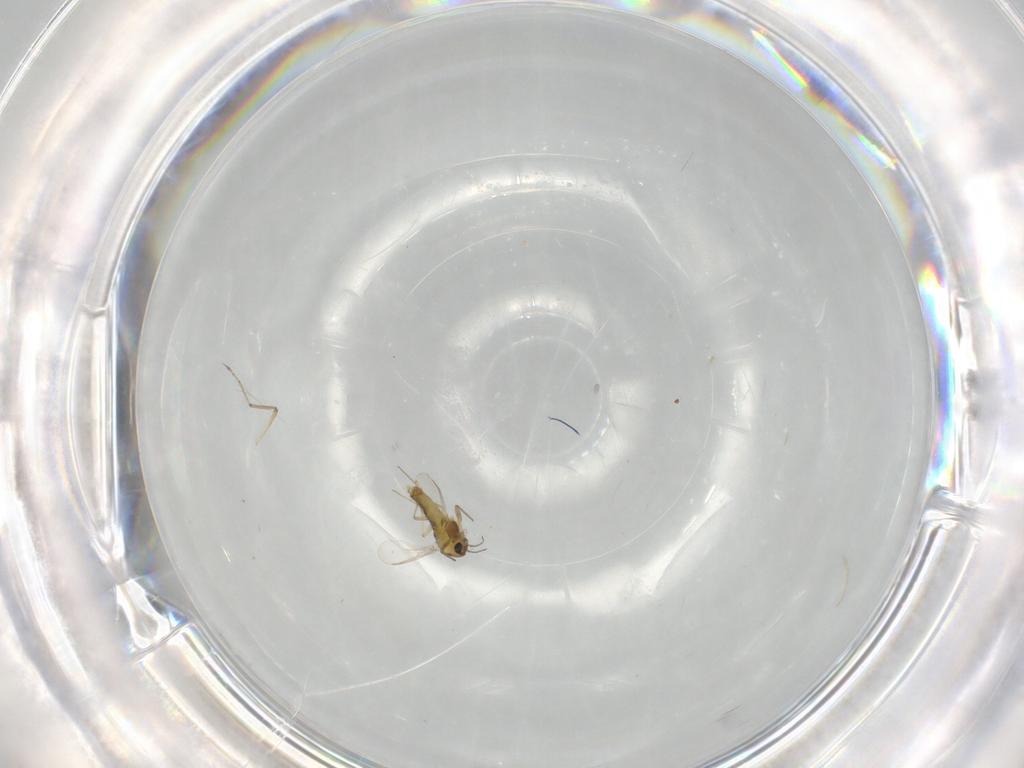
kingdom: Animalia
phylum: Arthropoda
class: Insecta
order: Diptera
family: Chironomidae
